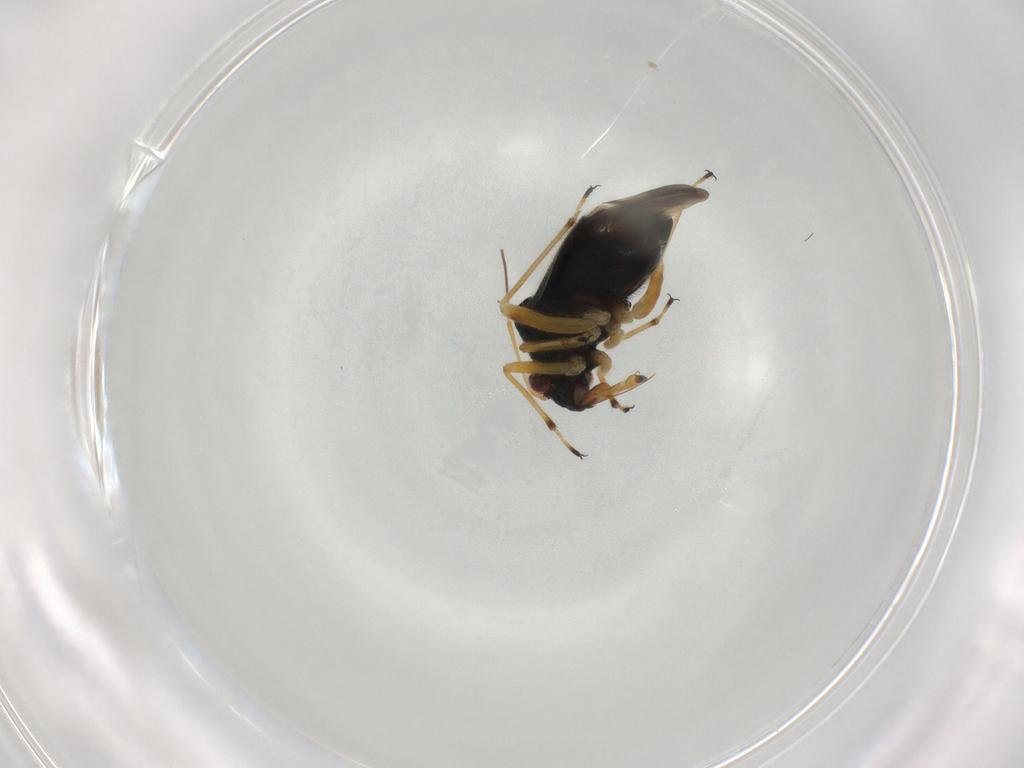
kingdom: Animalia
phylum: Arthropoda
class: Insecta
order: Hemiptera
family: Miridae
